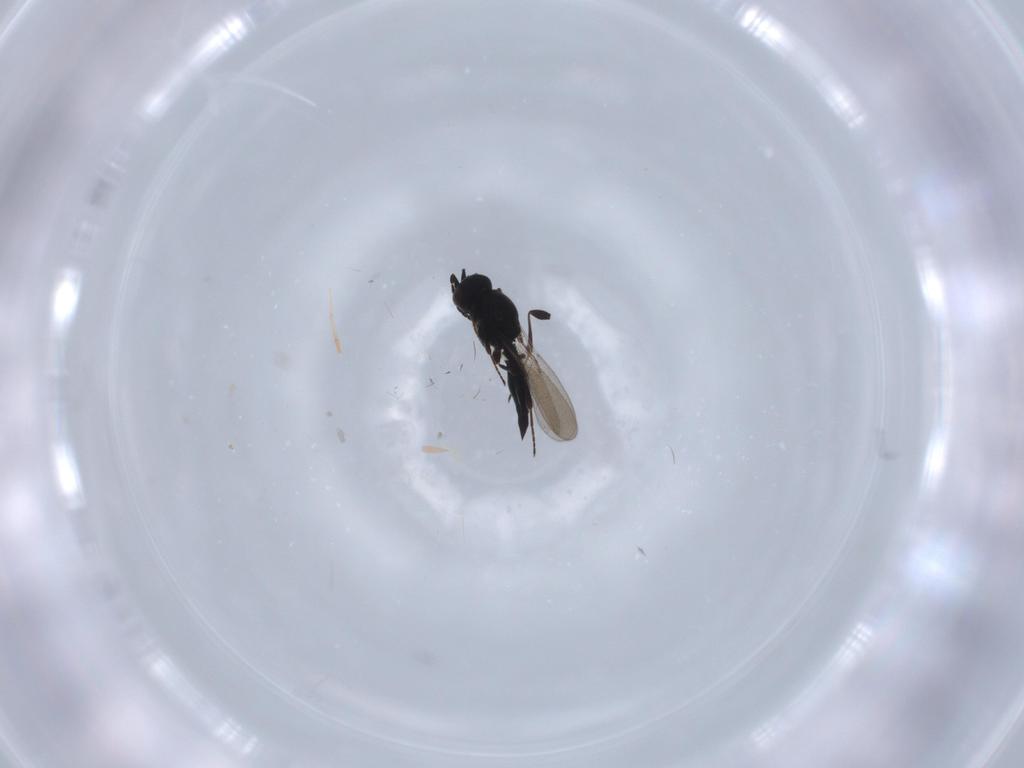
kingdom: Animalia
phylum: Arthropoda
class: Insecta
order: Hymenoptera
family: Platygastridae
